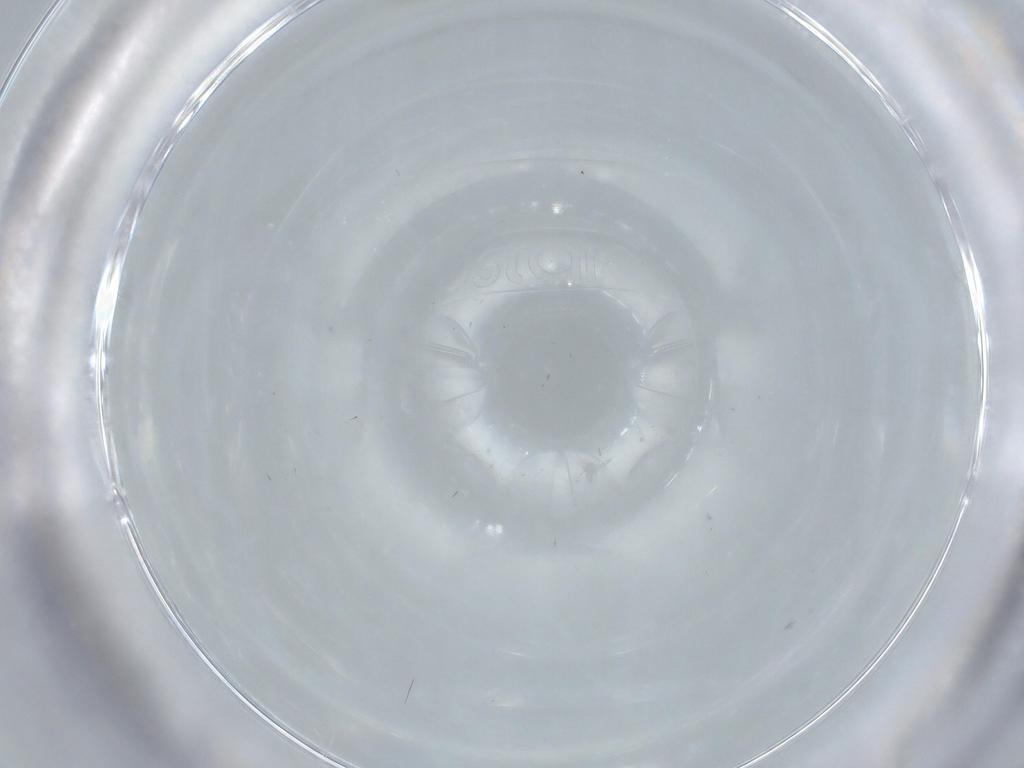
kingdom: Animalia
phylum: Arthropoda
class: Insecta
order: Diptera
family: Cecidomyiidae
